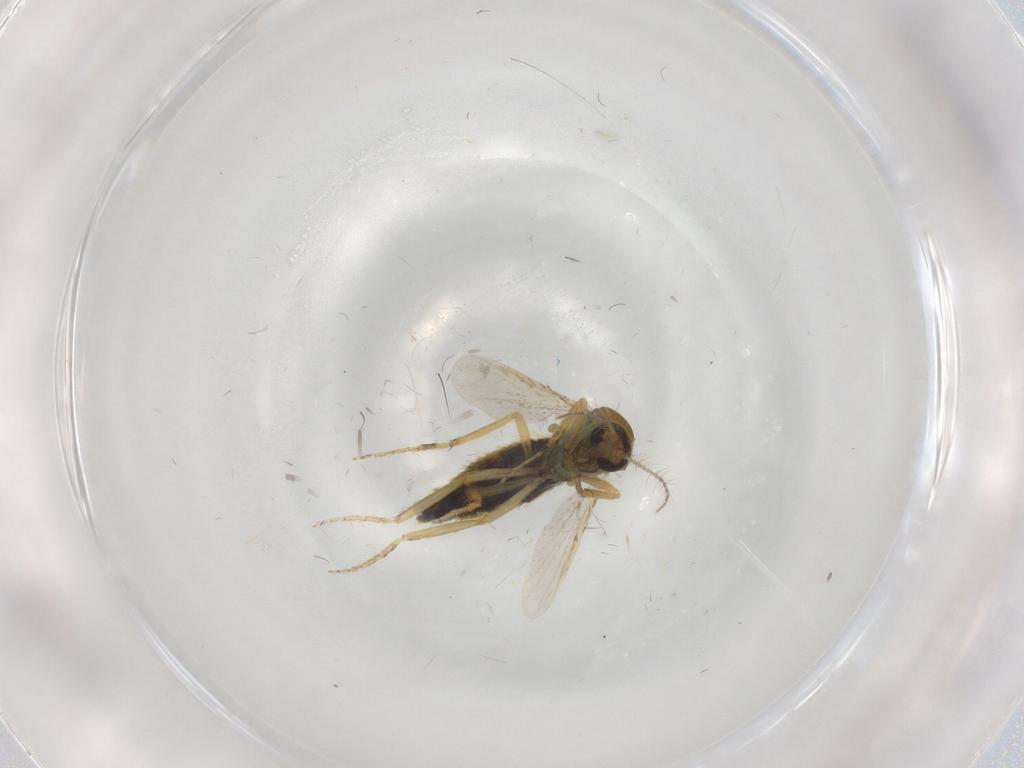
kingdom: Animalia
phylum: Arthropoda
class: Insecta
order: Diptera
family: Ceratopogonidae
